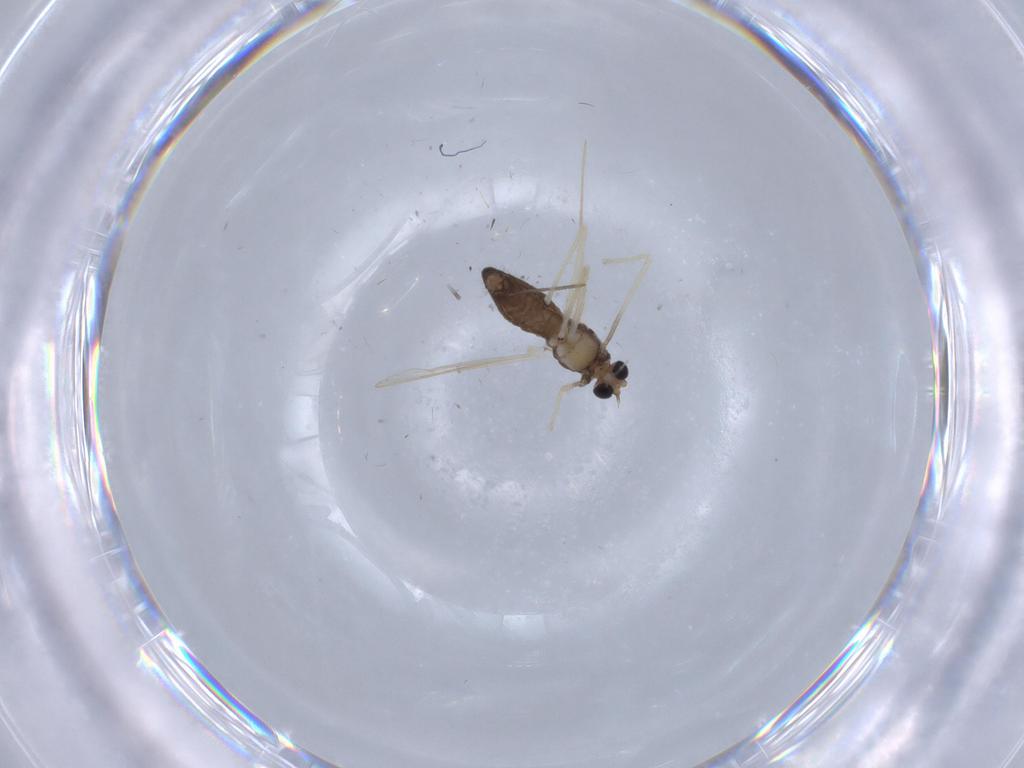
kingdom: Animalia
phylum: Arthropoda
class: Insecta
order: Diptera
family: Chironomidae
